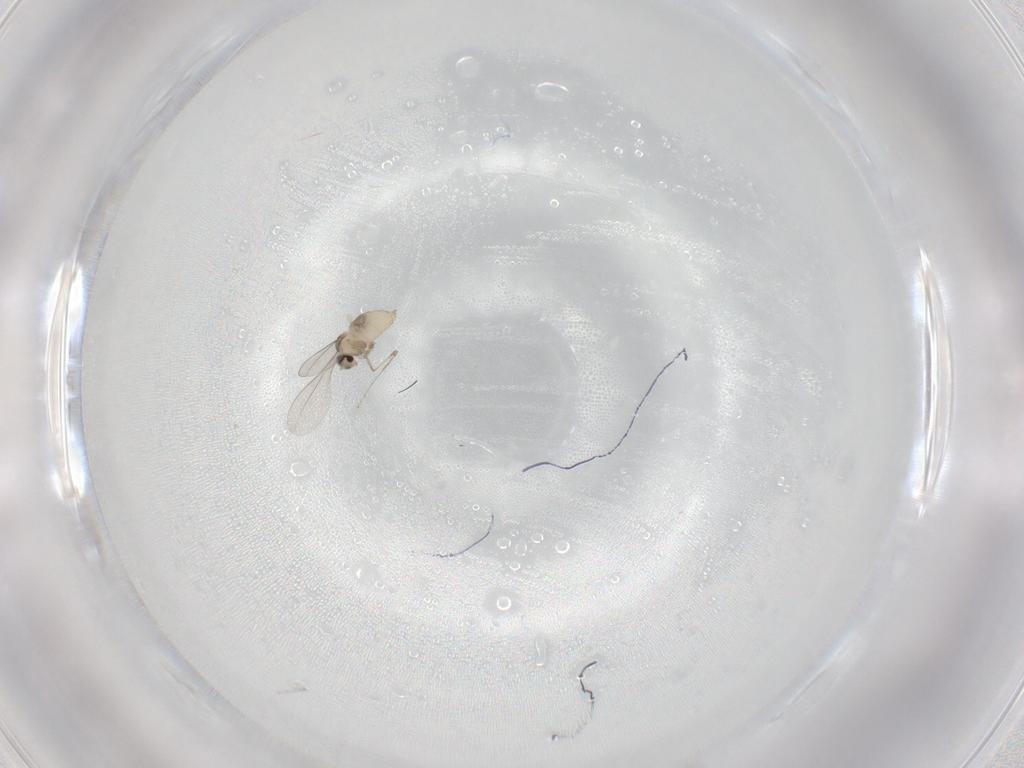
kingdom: Animalia
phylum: Arthropoda
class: Insecta
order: Diptera
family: Cecidomyiidae
